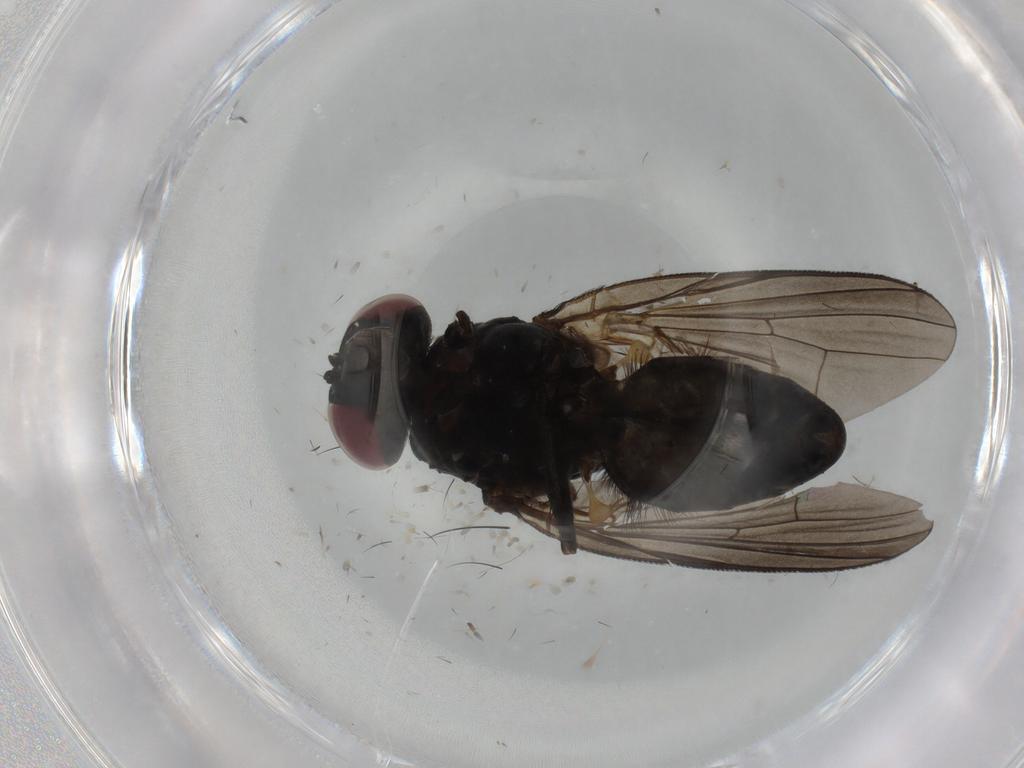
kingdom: Animalia
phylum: Arthropoda
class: Insecta
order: Diptera
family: Fannia
